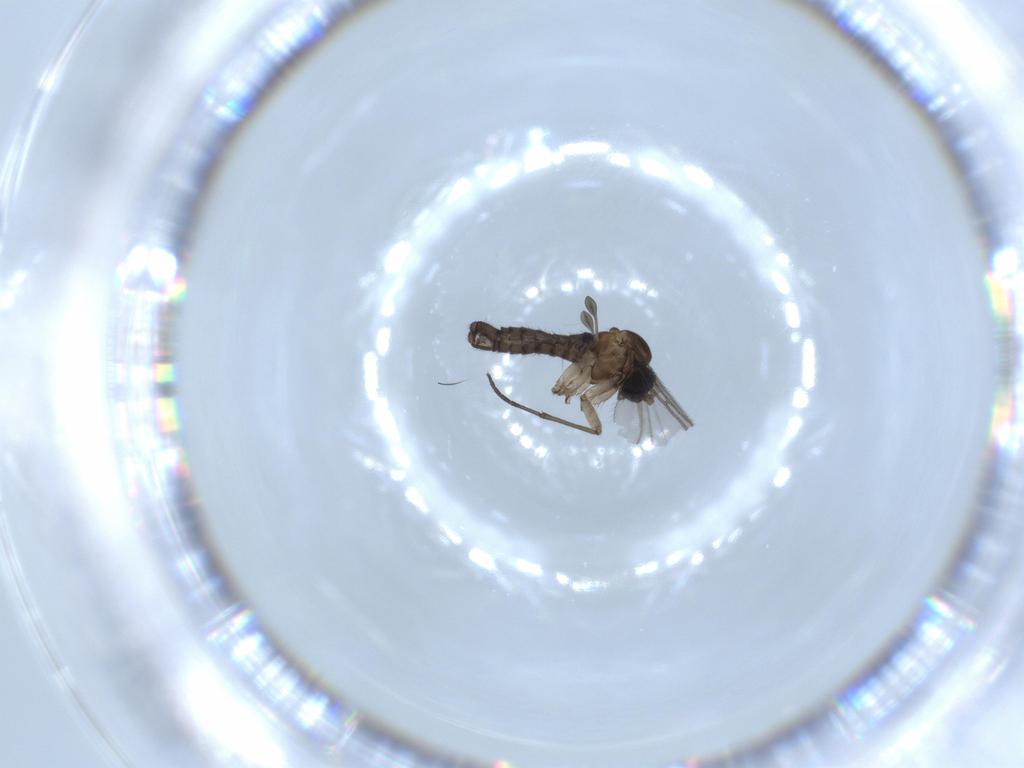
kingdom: Animalia
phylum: Arthropoda
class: Insecta
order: Diptera
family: Sciaridae
